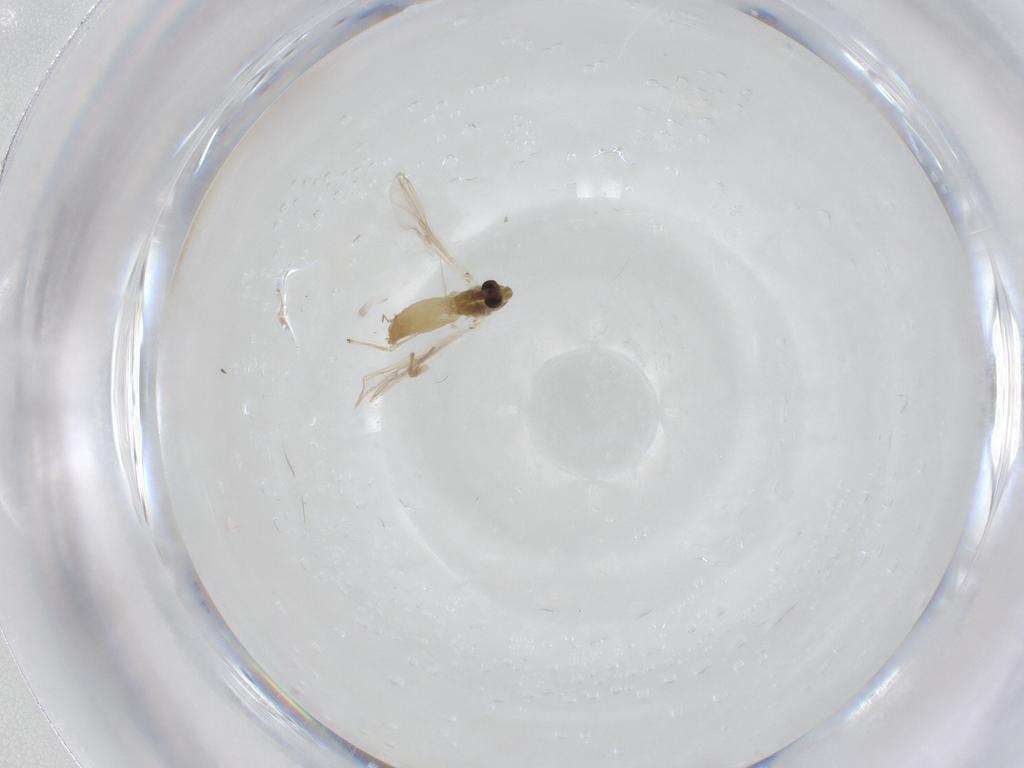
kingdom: Animalia
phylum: Arthropoda
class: Insecta
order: Diptera
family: Bombyliidae
